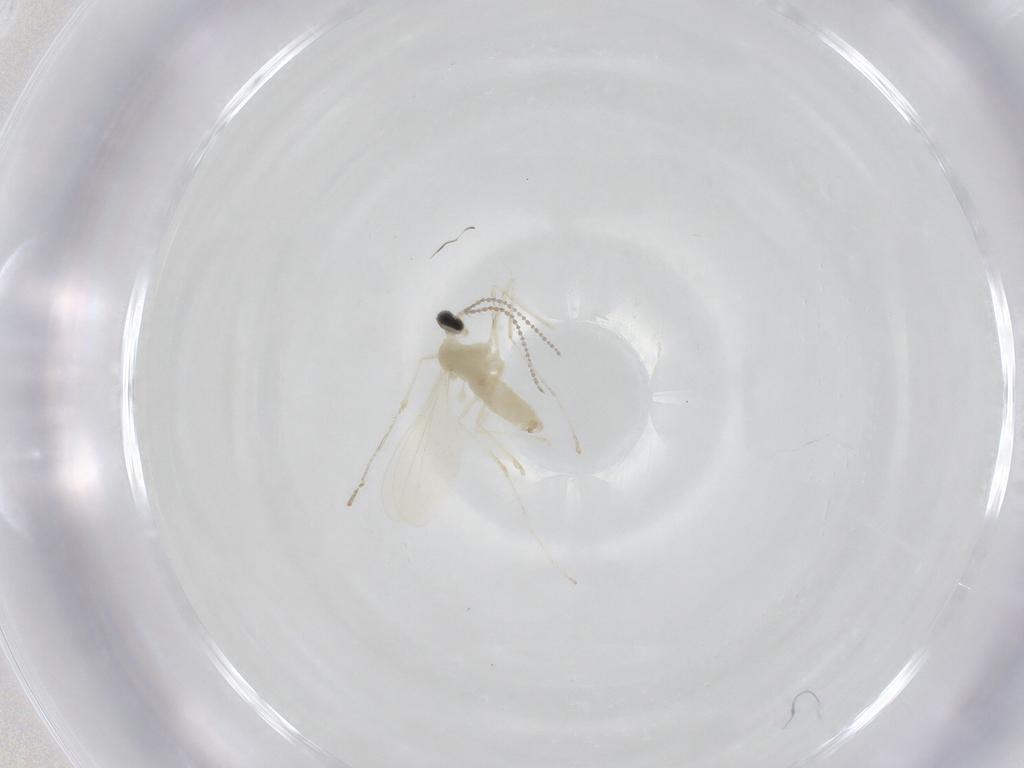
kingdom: Animalia
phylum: Arthropoda
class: Insecta
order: Diptera
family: Cecidomyiidae
